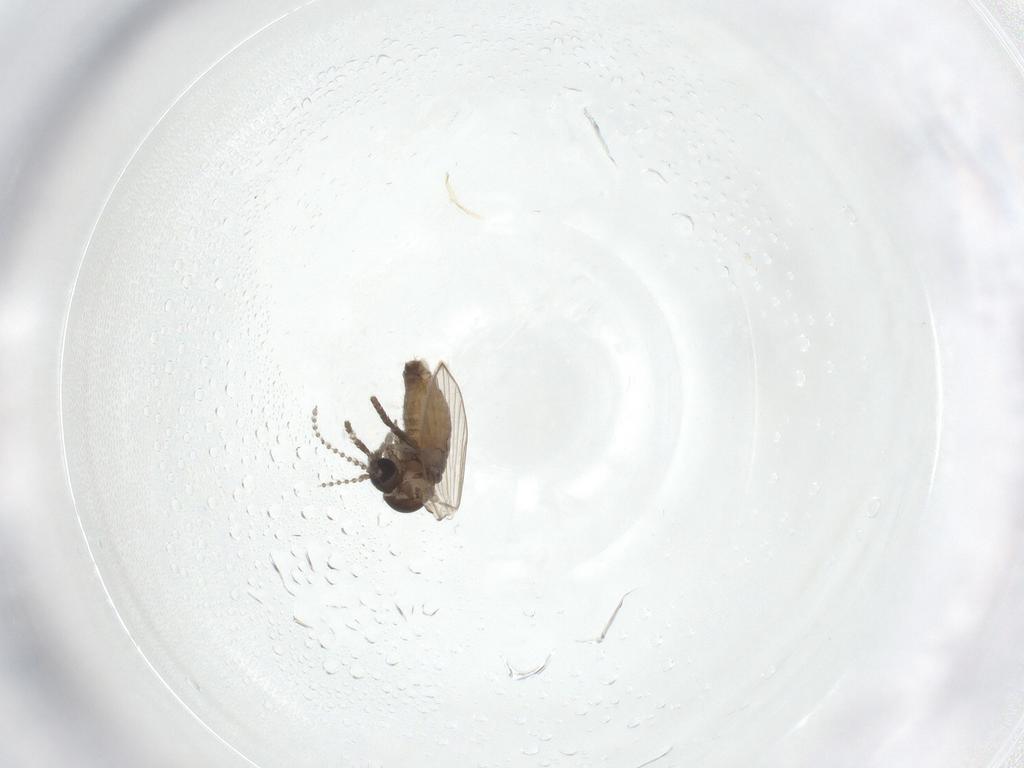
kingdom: Animalia
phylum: Arthropoda
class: Insecta
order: Diptera
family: Psychodidae
